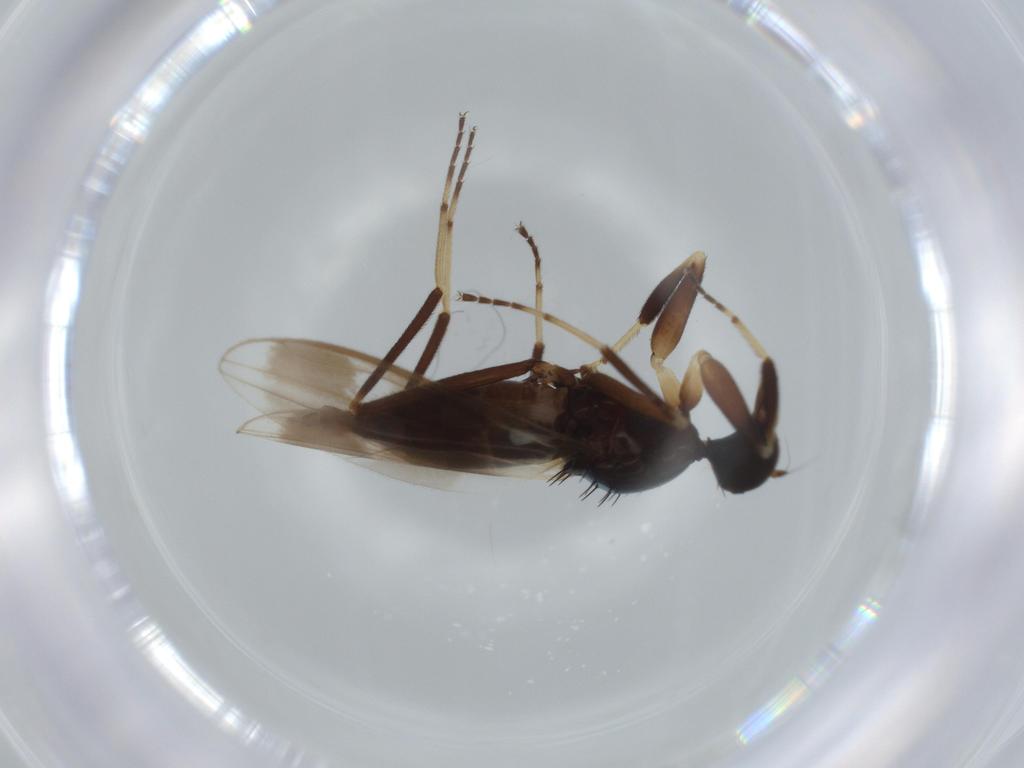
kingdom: Animalia
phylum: Arthropoda
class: Insecta
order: Diptera
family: Hybotidae
